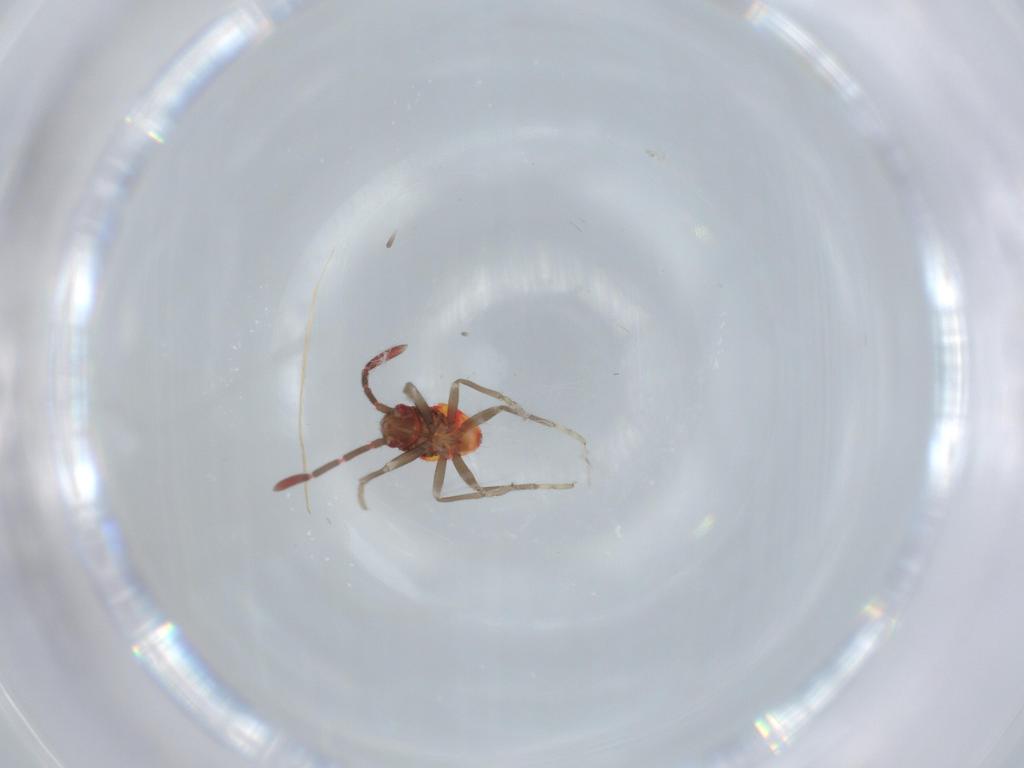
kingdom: Animalia
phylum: Arthropoda
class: Insecta
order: Hemiptera
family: Rhyparochromidae
